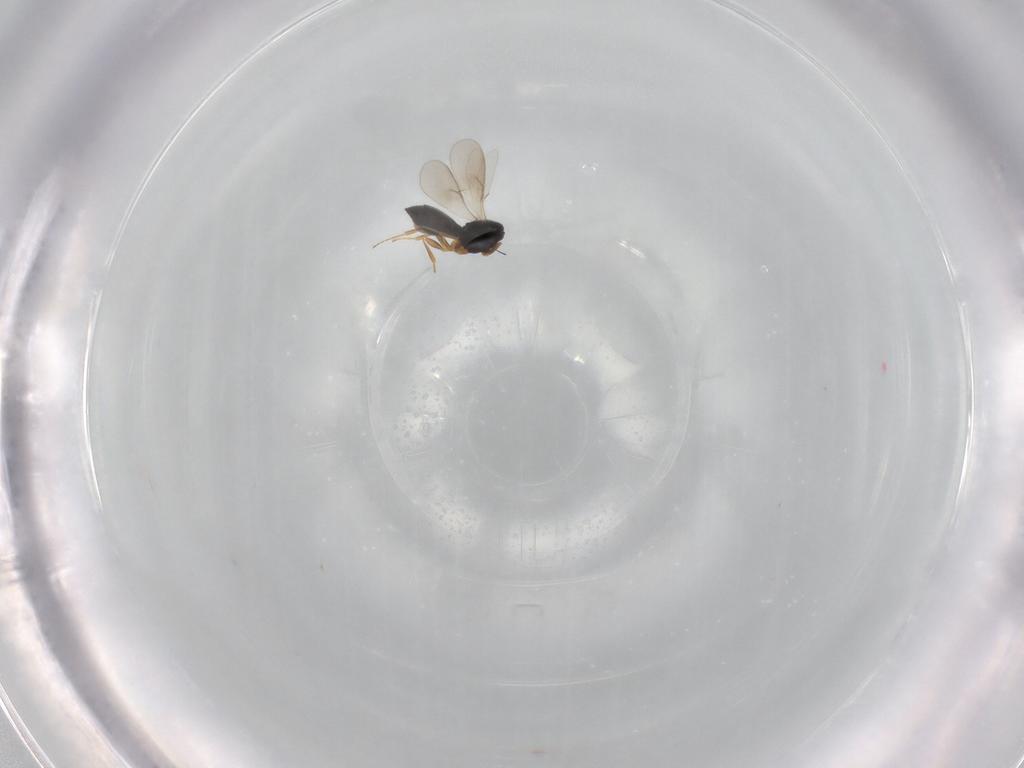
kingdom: Animalia
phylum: Arthropoda
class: Insecta
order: Hymenoptera
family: Scelionidae
